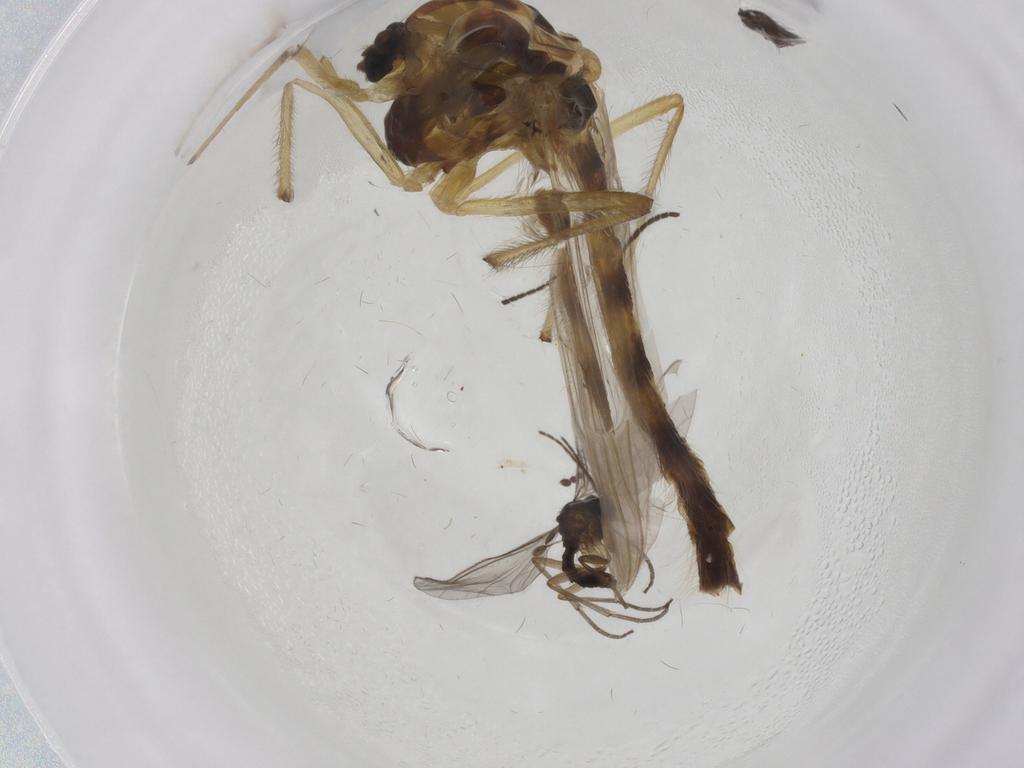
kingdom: Animalia
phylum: Arthropoda
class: Insecta
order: Diptera
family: Chironomidae
